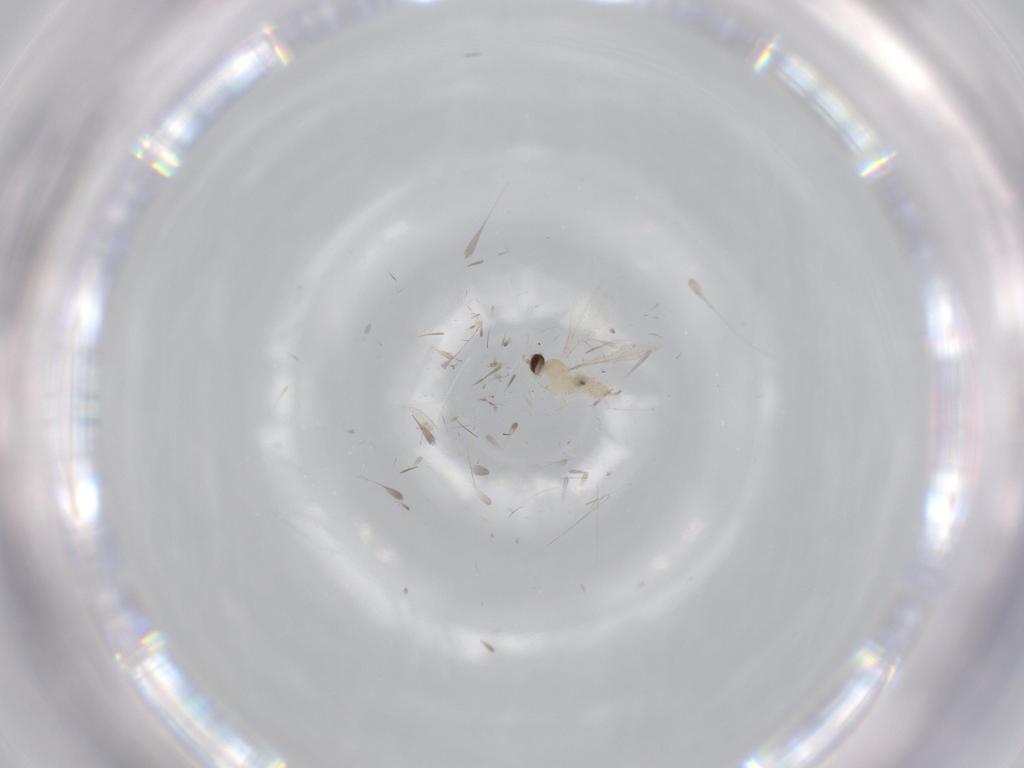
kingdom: Animalia
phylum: Arthropoda
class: Insecta
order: Diptera
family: Cecidomyiidae
